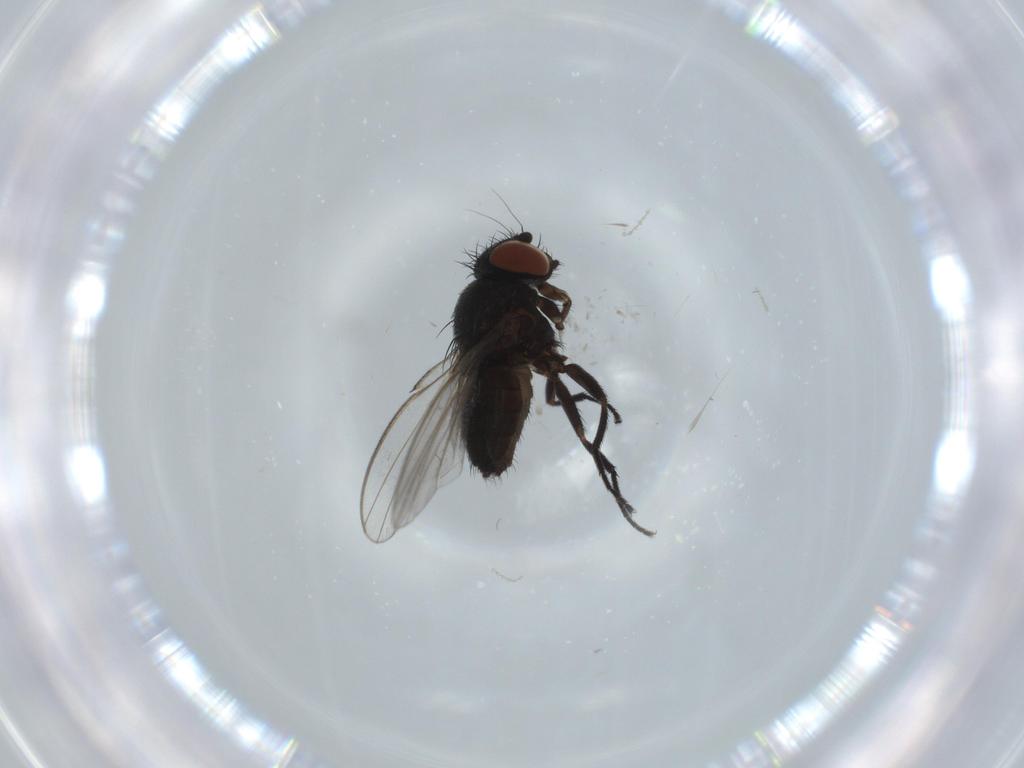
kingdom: Animalia
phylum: Arthropoda
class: Insecta
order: Diptera
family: Milichiidae
